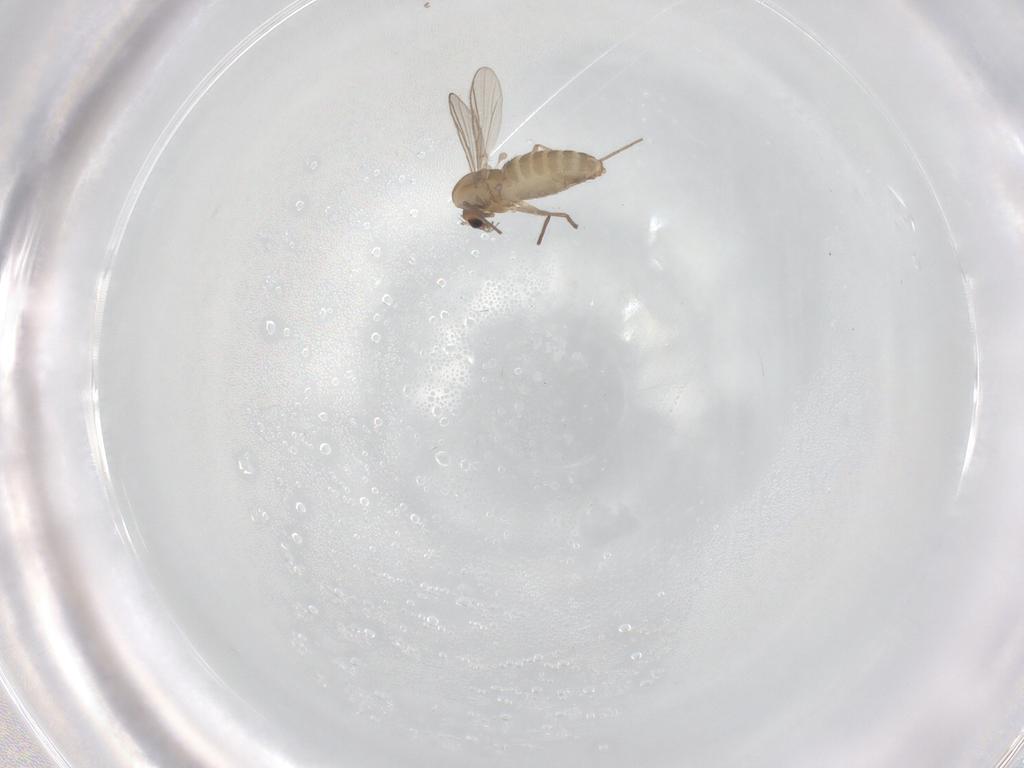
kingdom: Animalia
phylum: Arthropoda
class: Insecta
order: Diptera
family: Chironomidae
